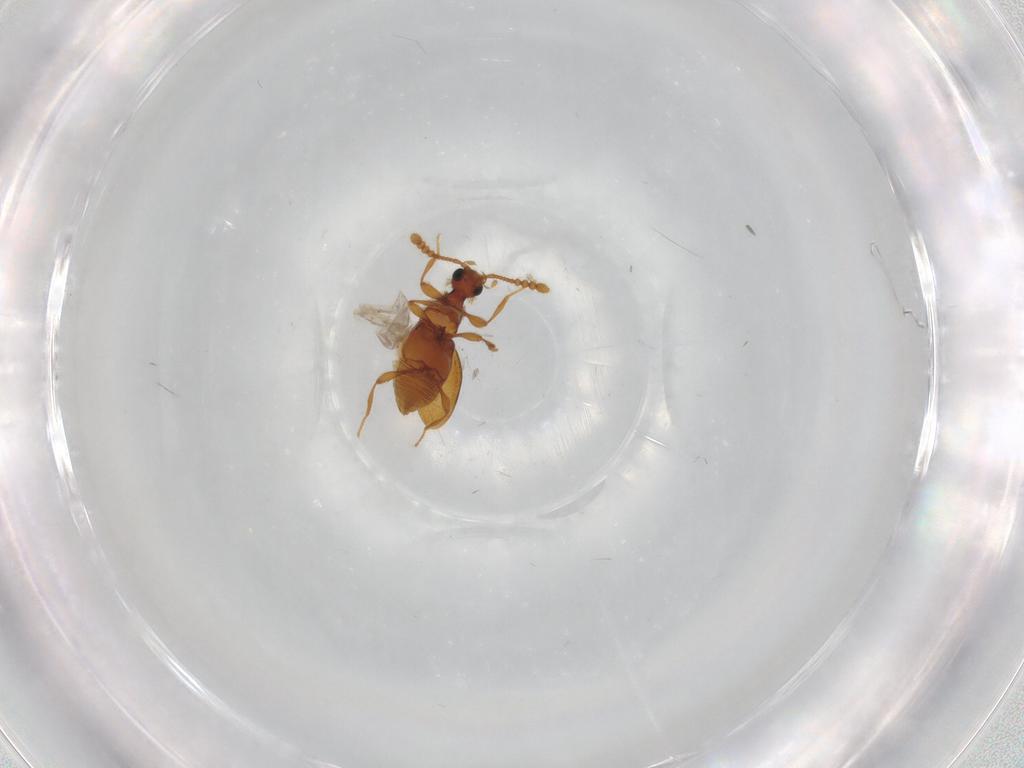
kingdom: Animalia
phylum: Arthropoda
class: Insecta
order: Coleoptera
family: Staphylinidae
